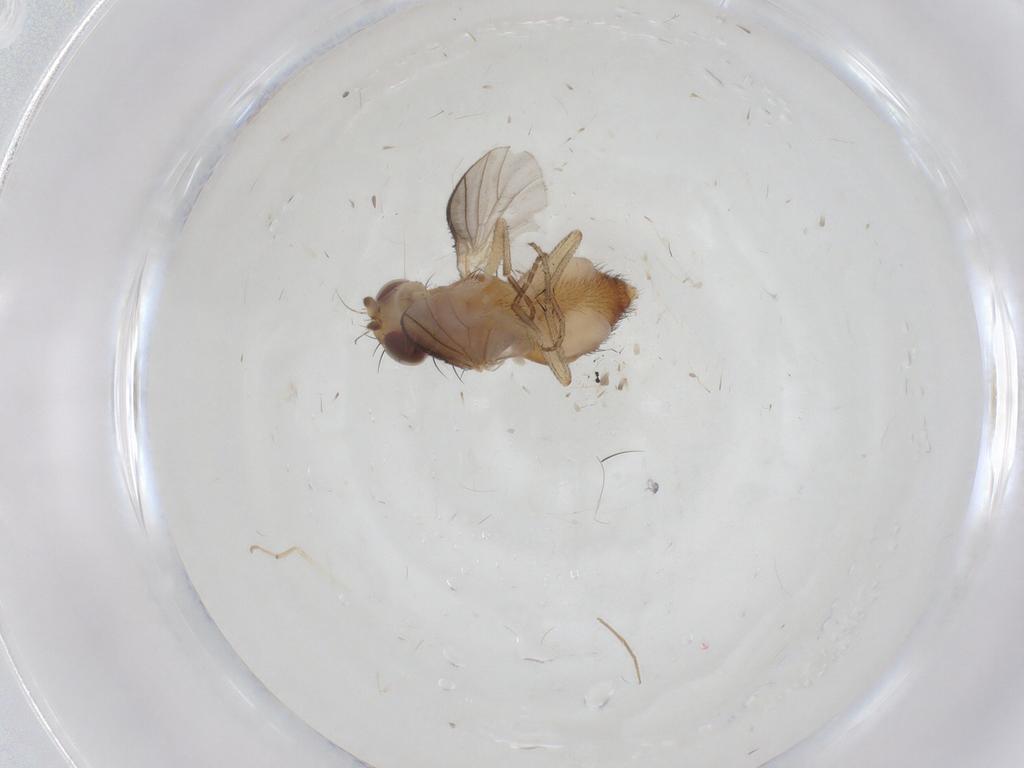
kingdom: Animalia
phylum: Arthropoda
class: Insecta
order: Diptera
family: Heleomyzidae
